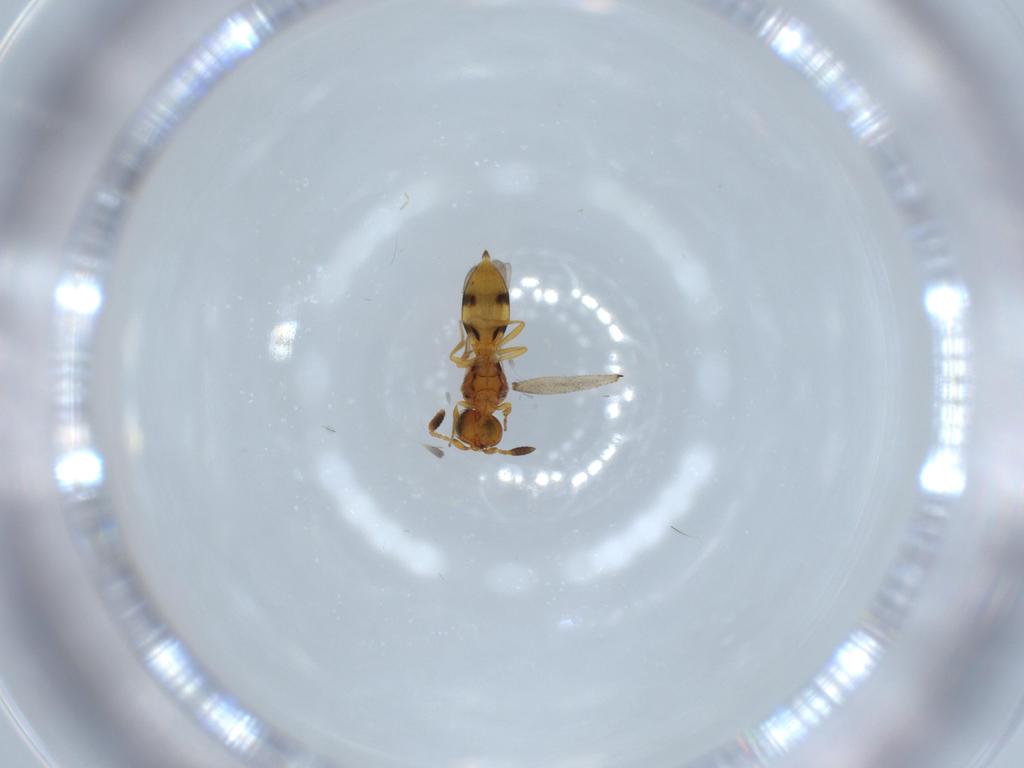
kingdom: Animalia
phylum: Arthropoda
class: Insecta
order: Hymenoptera
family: Scelionidae
